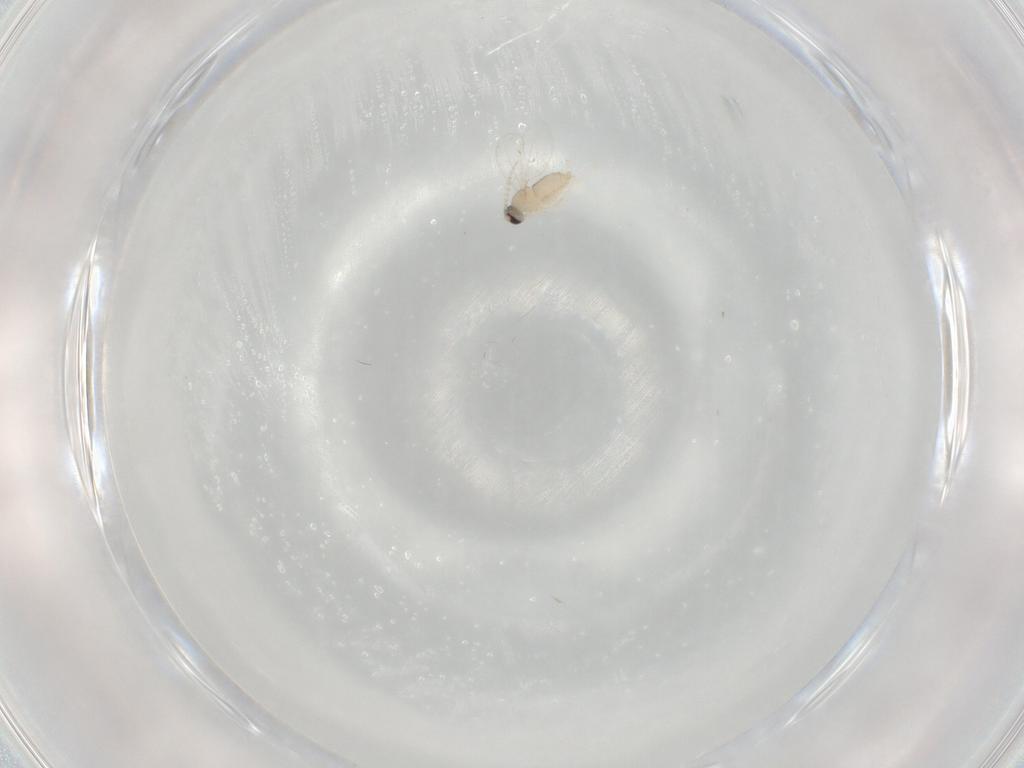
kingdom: Animalia
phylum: Arthropoda
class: Insecta
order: Diptera
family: Cecidomyiidae
